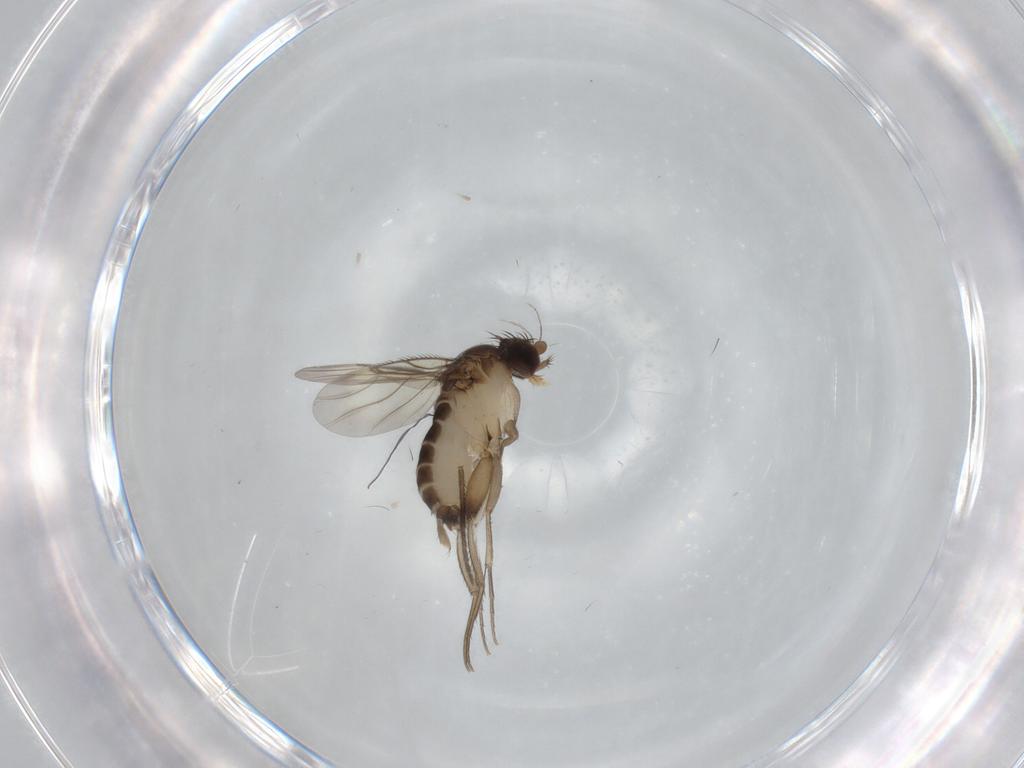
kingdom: Animalia
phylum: Arthropoda
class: Insecta
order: Diptera
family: Phoridae
